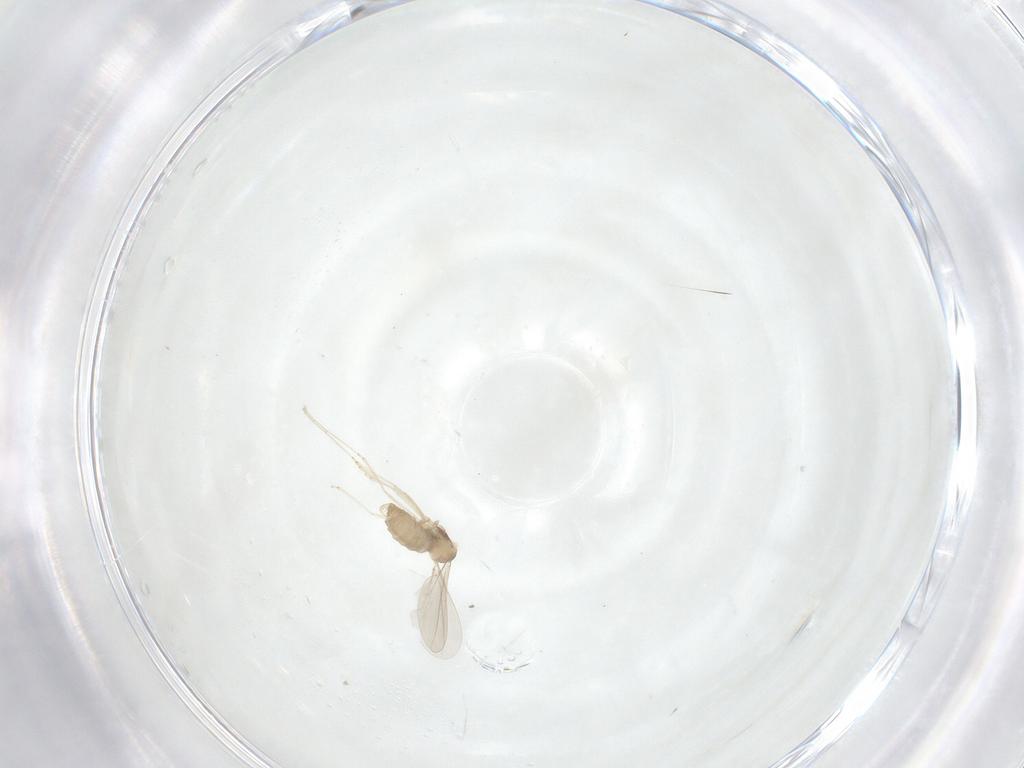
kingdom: Animalia
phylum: Arthropoda
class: Insecta
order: Diptera
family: Cecidomyiidae
